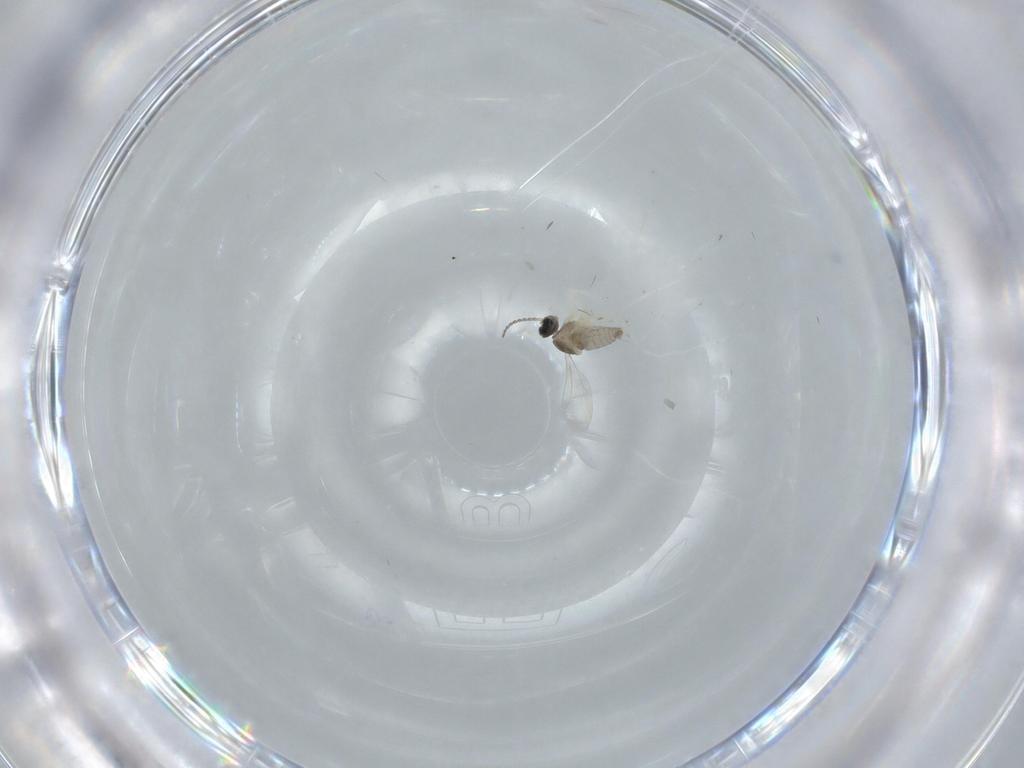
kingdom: Animalia
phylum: Arthropoda
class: Insecta
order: Diptera
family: Cecidomyiidae
